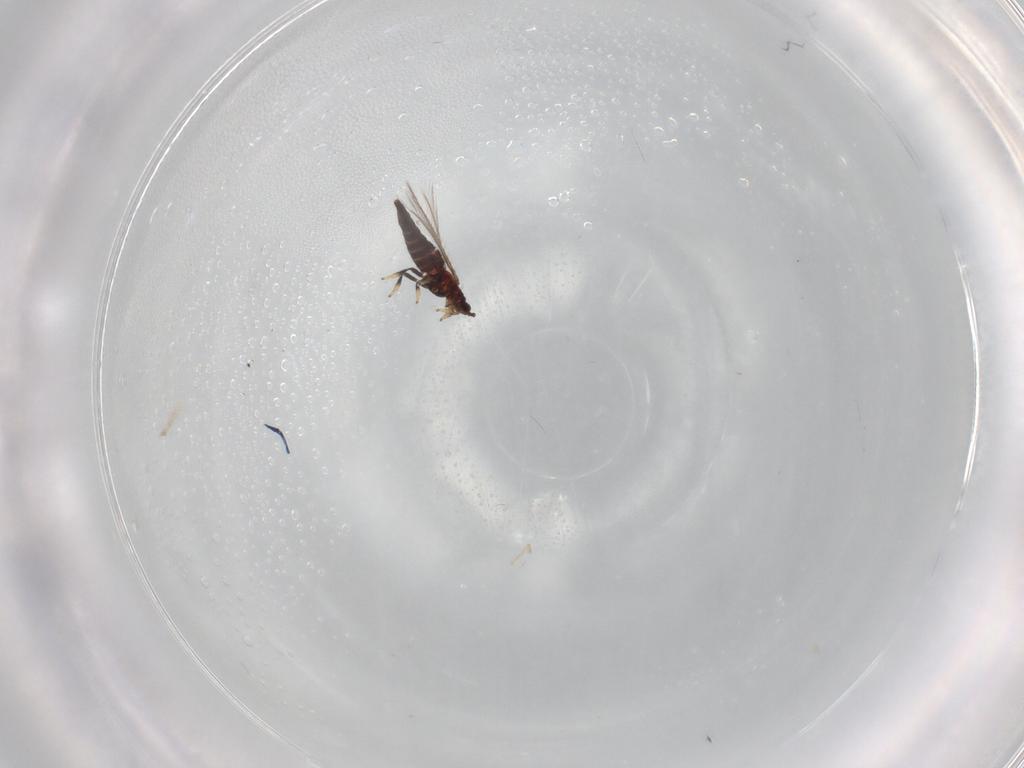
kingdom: Animalia
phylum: Arthropoda
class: Insecta
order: Thysanoptera
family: Thripidae
